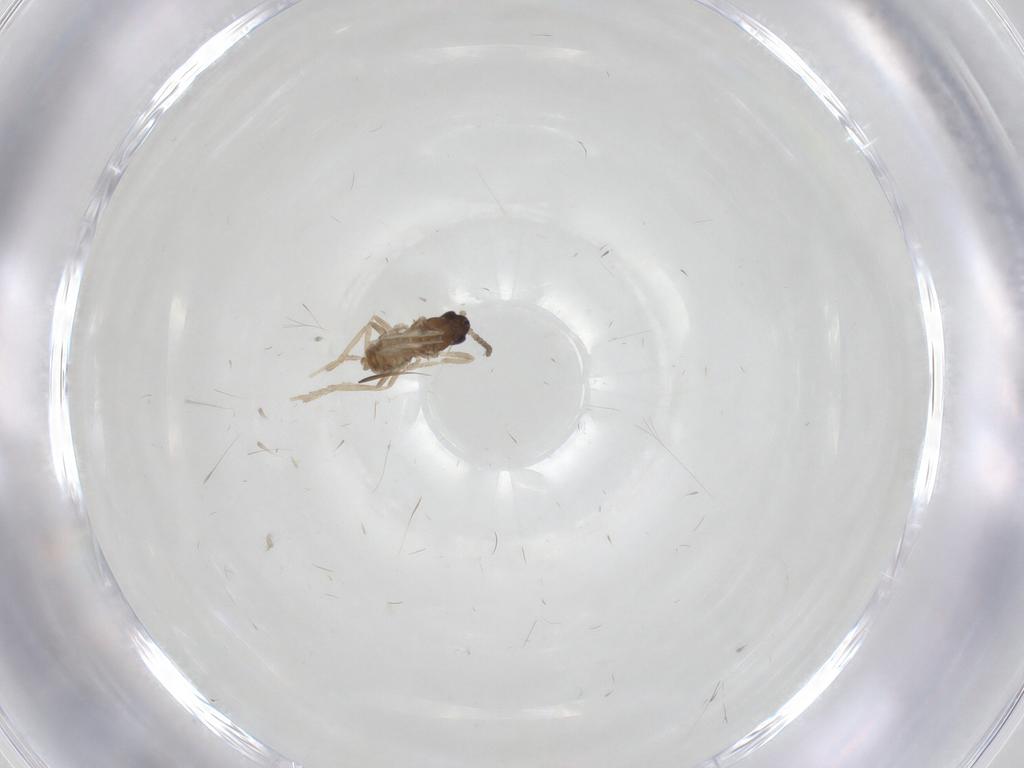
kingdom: Animalia
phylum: Arthropoda
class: Insecta
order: Diptera
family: Cecidomyiidae
